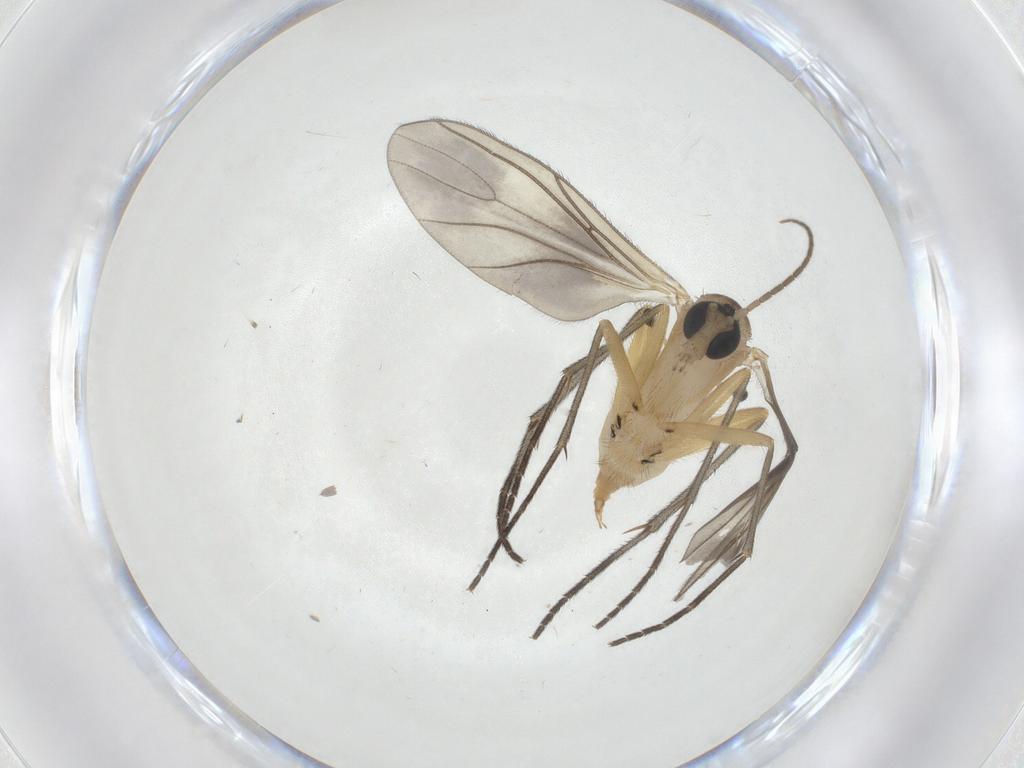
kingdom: Animalia
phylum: Arthropoda
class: Insecta
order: Diptera
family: Sciaridae
